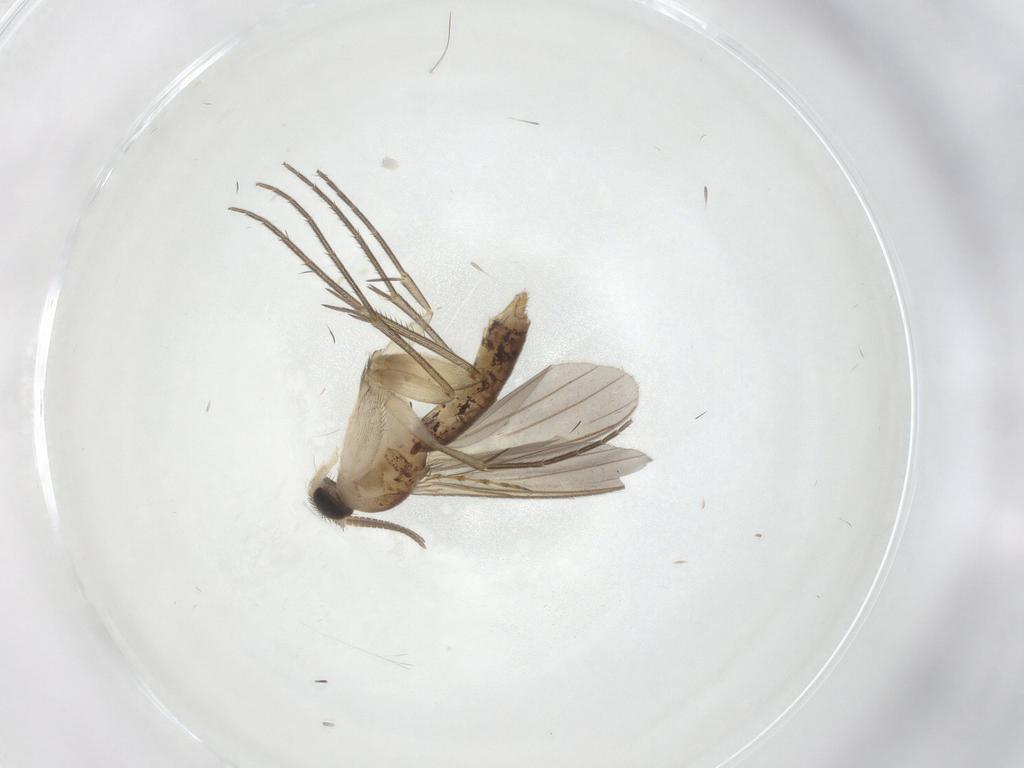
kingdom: Animalia
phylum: Arthropoda
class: Insecta
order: Diptera
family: Mycetophilidae
